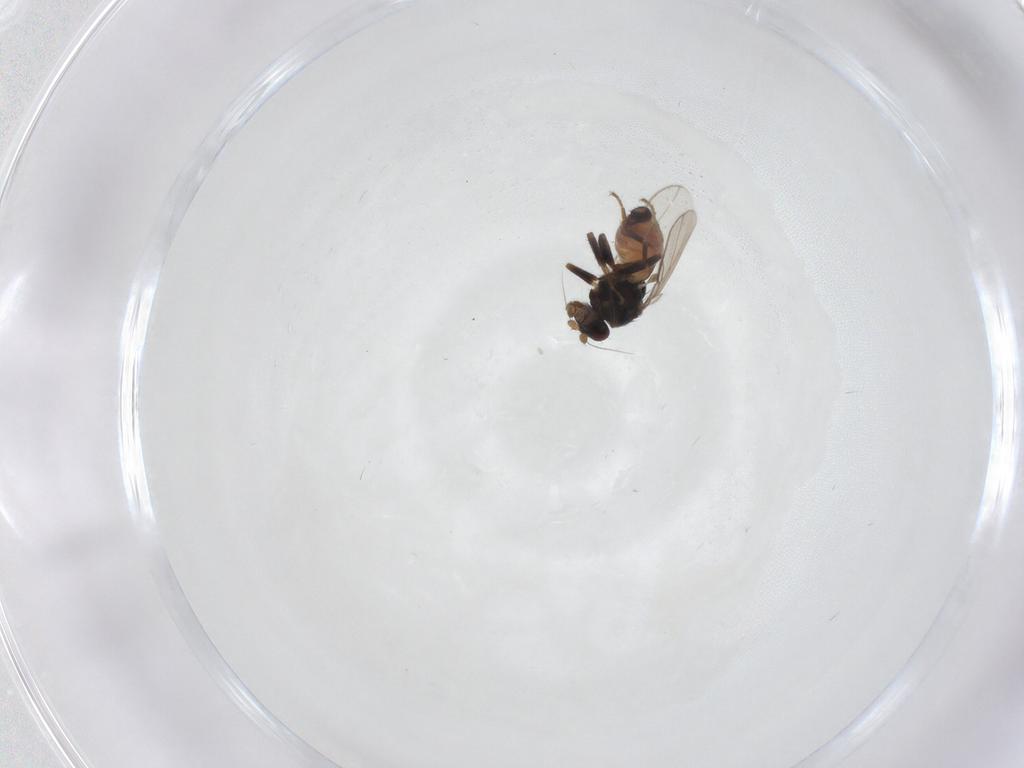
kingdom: Animalia
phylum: Arthropoda
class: Insecta
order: Diptera
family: Sphaeroceridae
